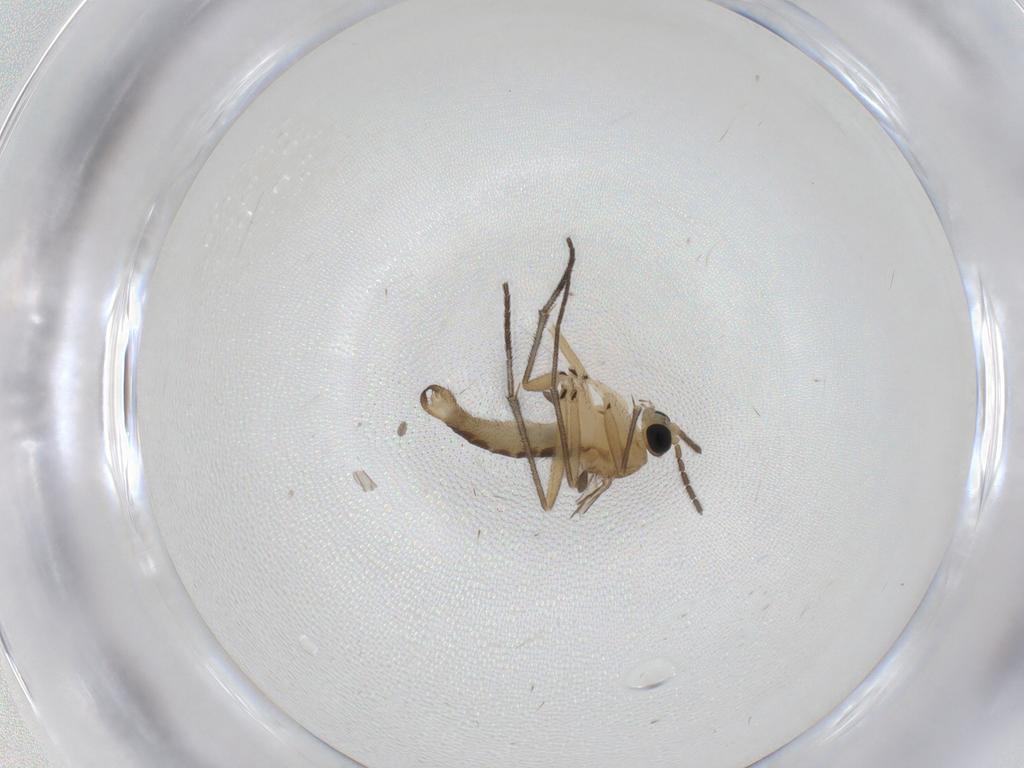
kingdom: Animalia
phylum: Arthropoda
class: Insecta
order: Diptera
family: Sciaridae
